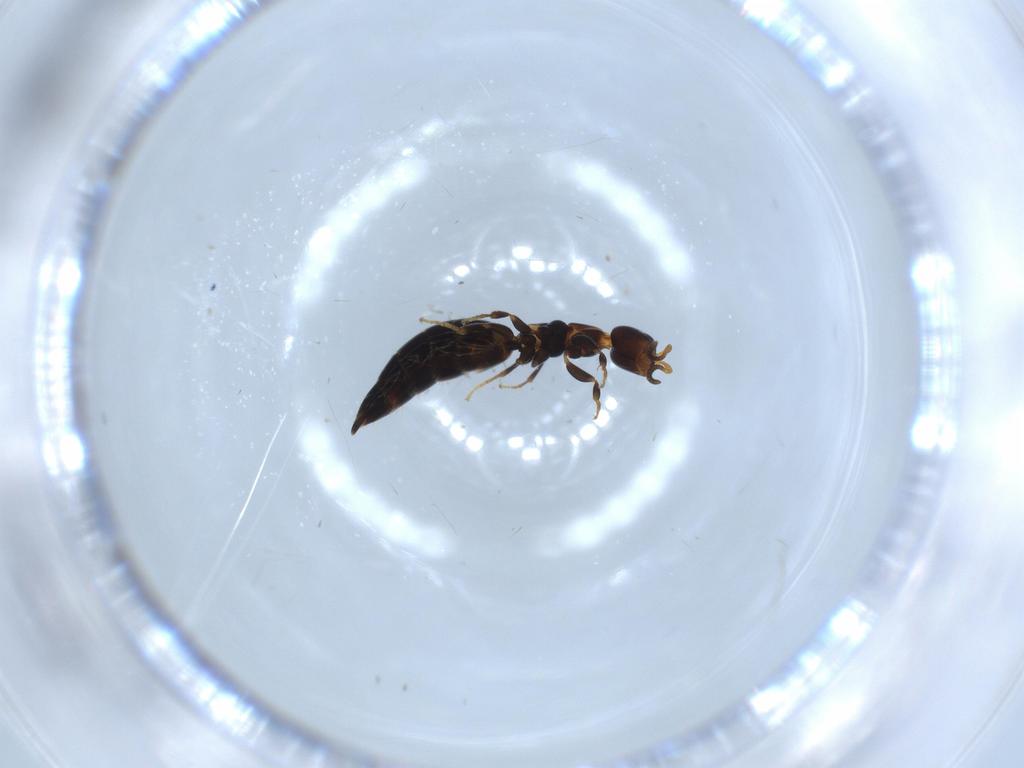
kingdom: Animalia
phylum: Arthropoda
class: Insecta
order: Hymenoptera
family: Bethylidae
